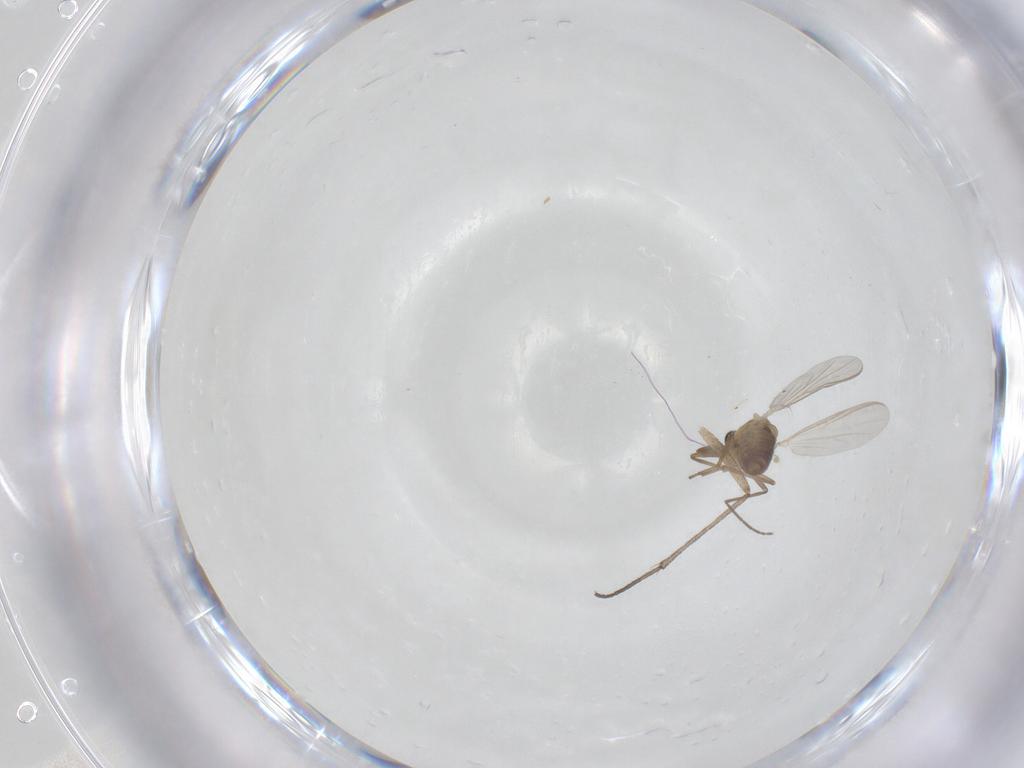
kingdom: Animalia
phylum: Arthropoda
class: Insecta
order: Diptera
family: Sciaridae
